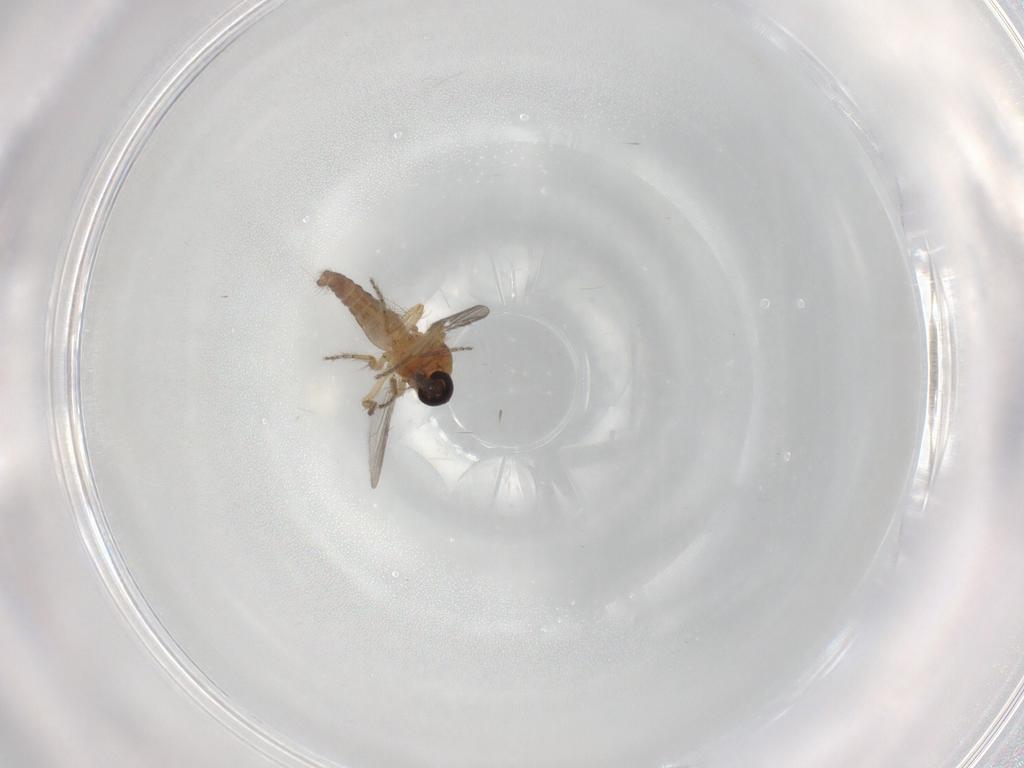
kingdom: Animalia
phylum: Arthropoda
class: Insecta
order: Diptera
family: Ceratopogonidae
